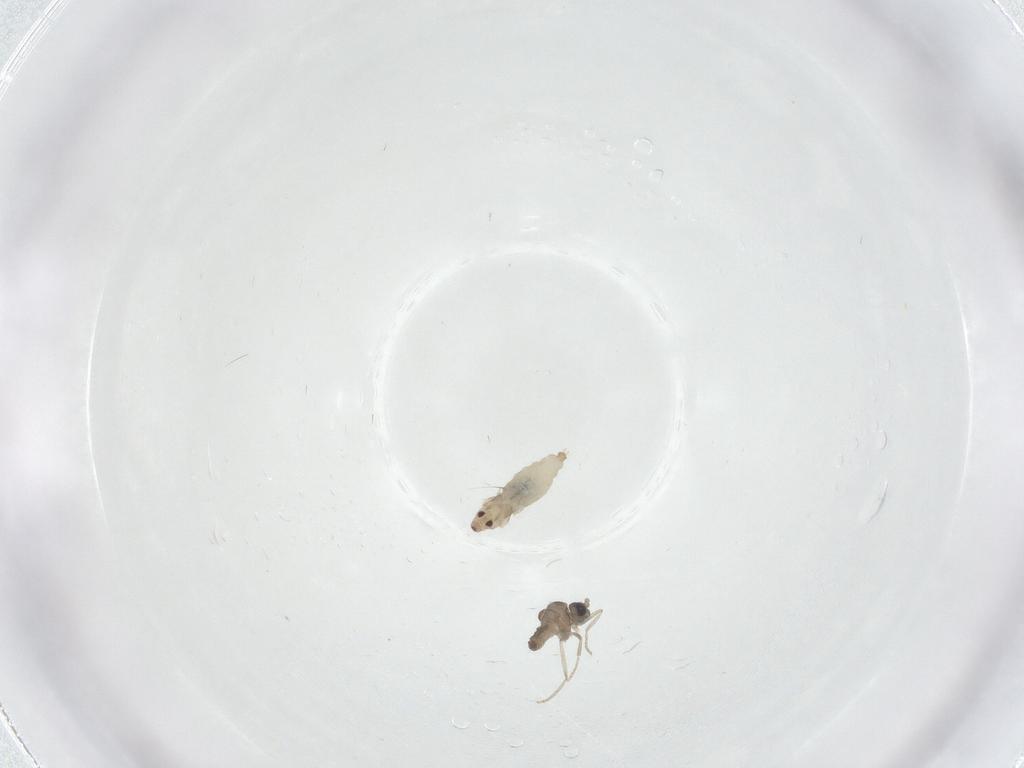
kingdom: Animalia
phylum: Arthropoda
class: Insecta
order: Diptera
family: Cecidomyiidae
